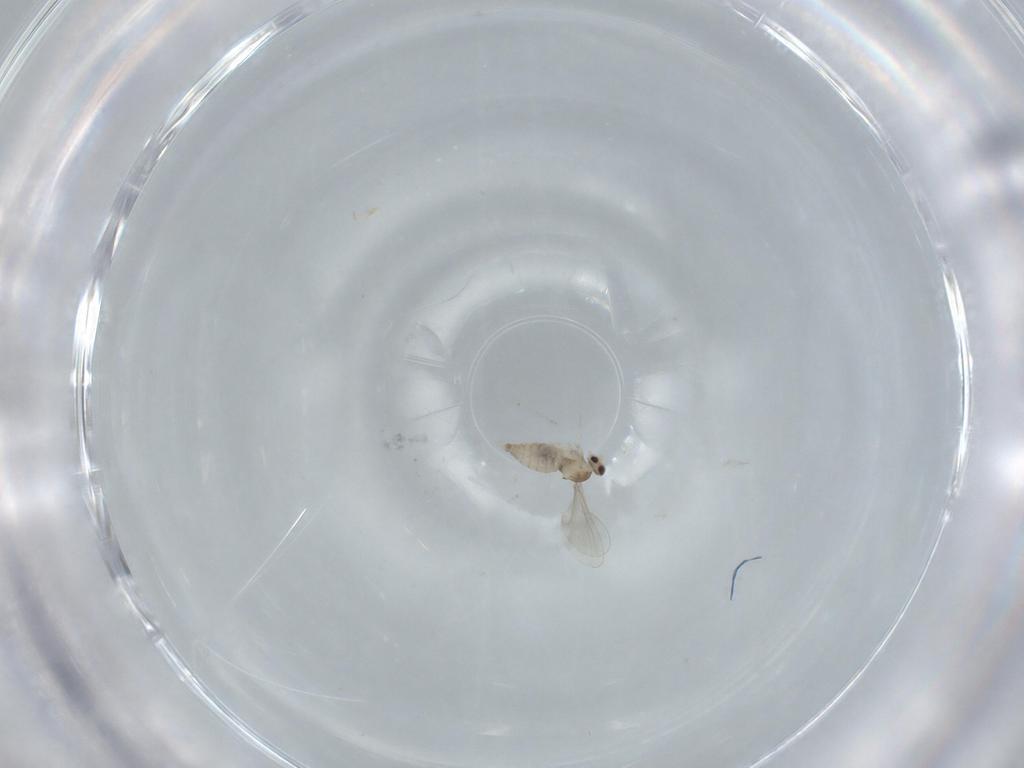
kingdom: Animalia
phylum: Arthropoda
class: Insecta
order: Diptera
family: Cecidomyiidae
